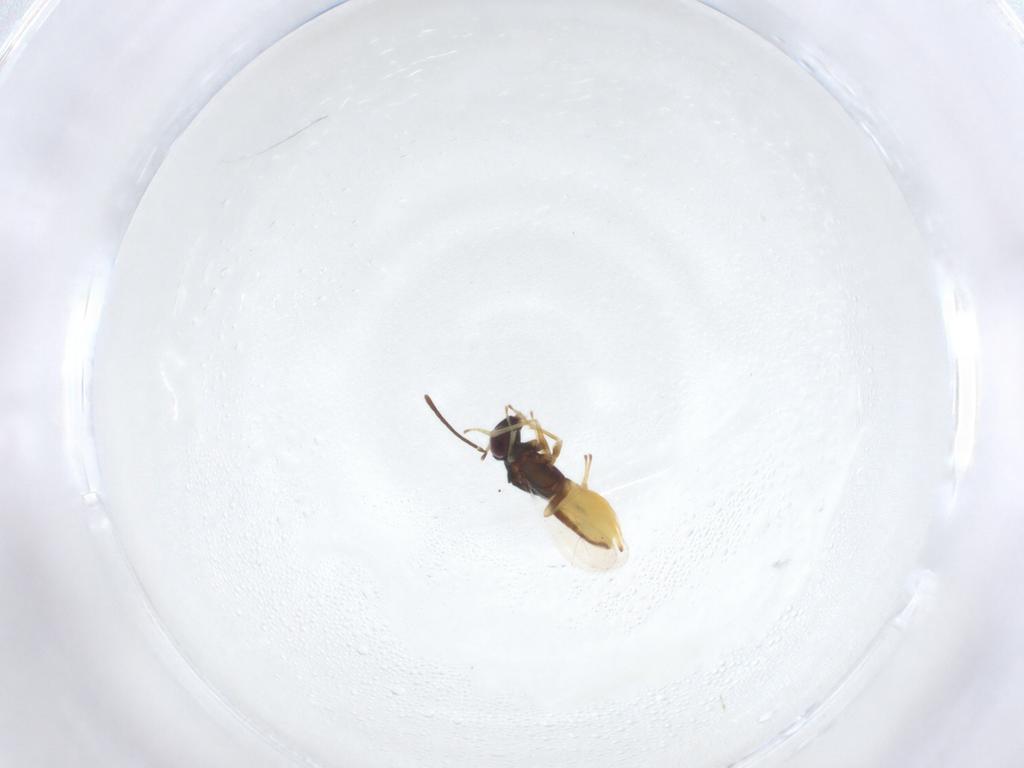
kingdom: Animalia
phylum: Arthropoda
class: Insecta
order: Hymenoptera
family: Encyrtidae
